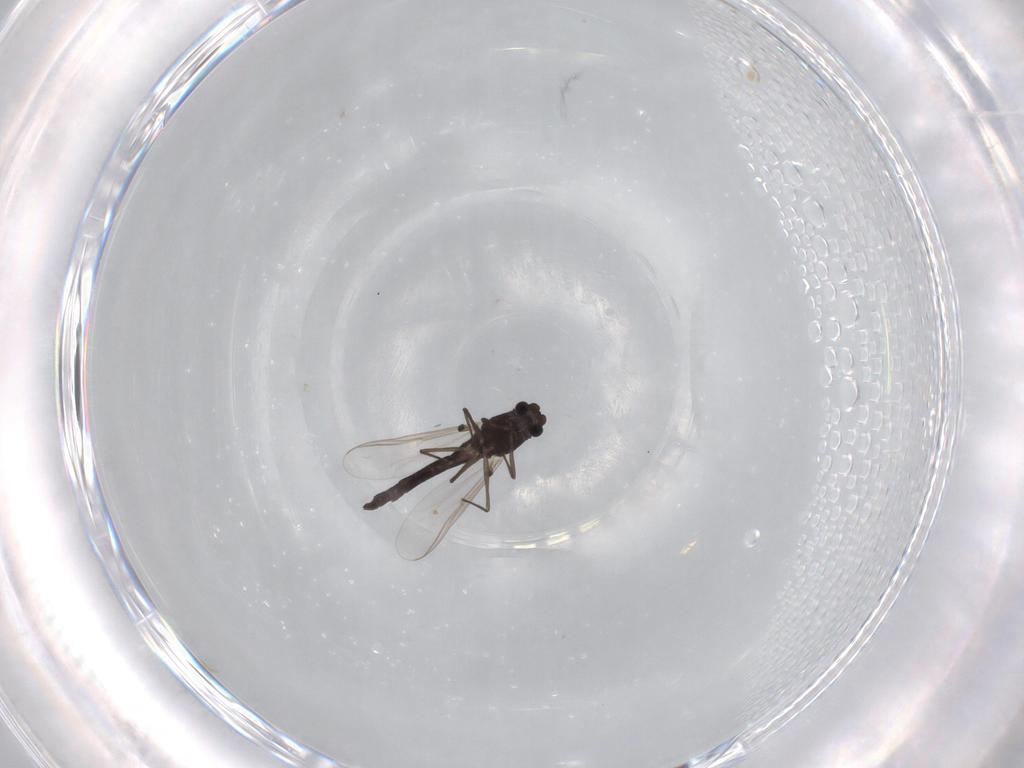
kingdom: Animalia
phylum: Arthropoda
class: Insecta
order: Diptera
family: Chironomidae
